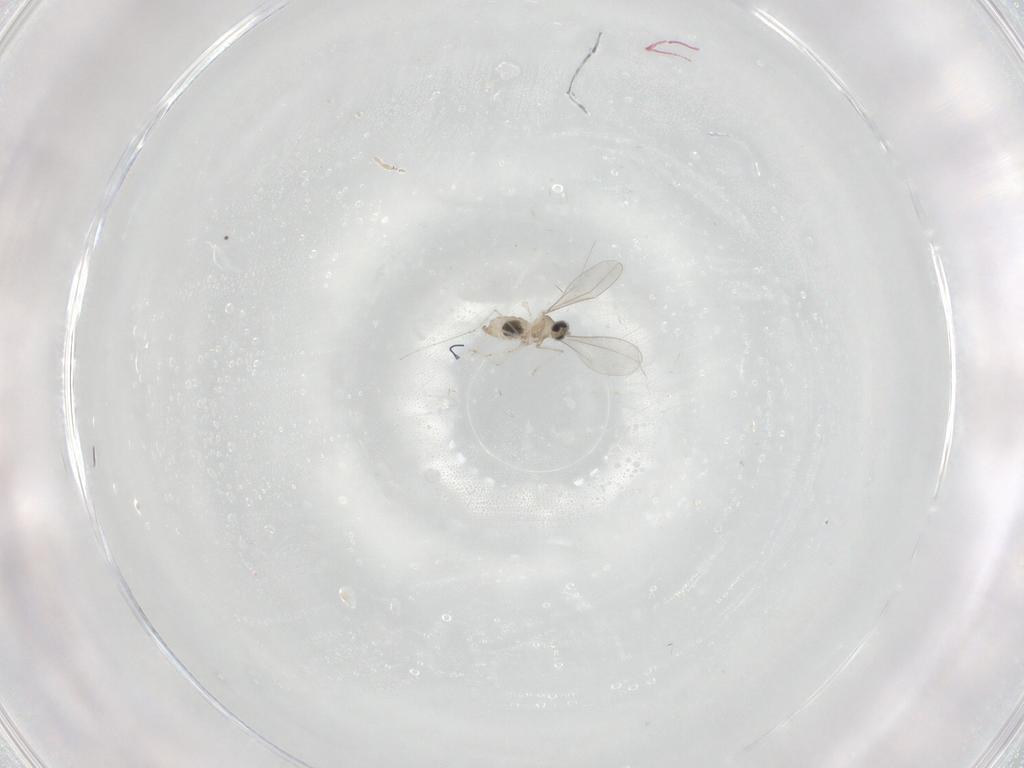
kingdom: Animalia
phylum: Arthropoda
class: Insecta
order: Diptera
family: Cecidomyiidae
